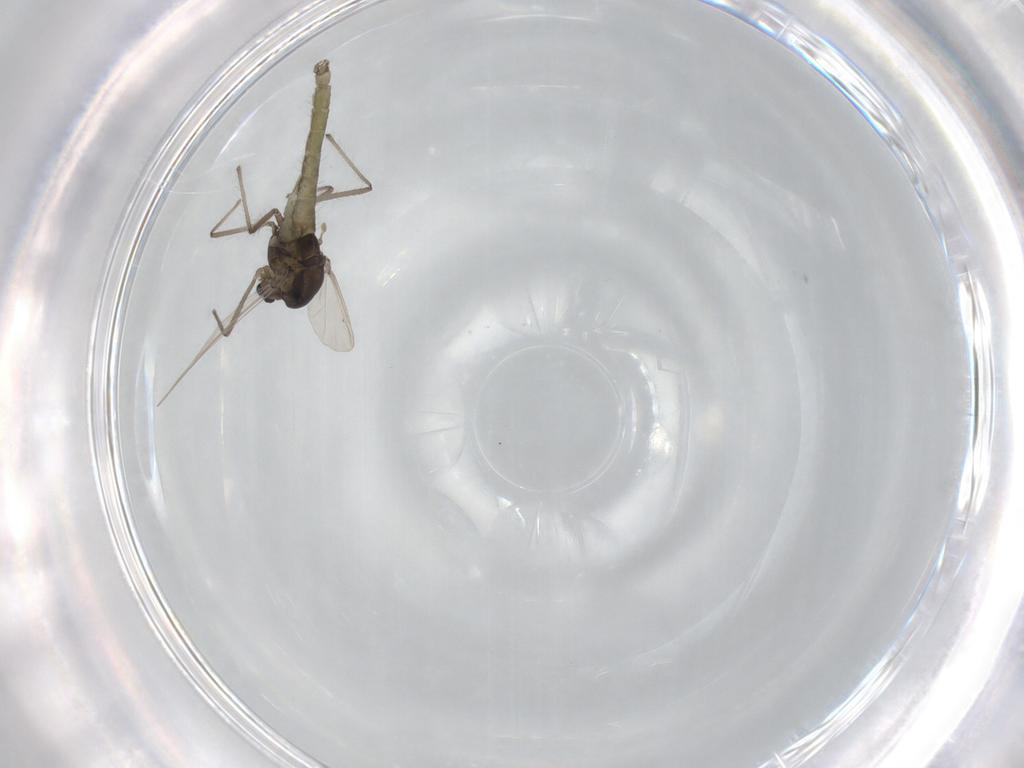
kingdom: Animalia
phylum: Arthropoda
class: Insecta
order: Diptera
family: Chironomidae
